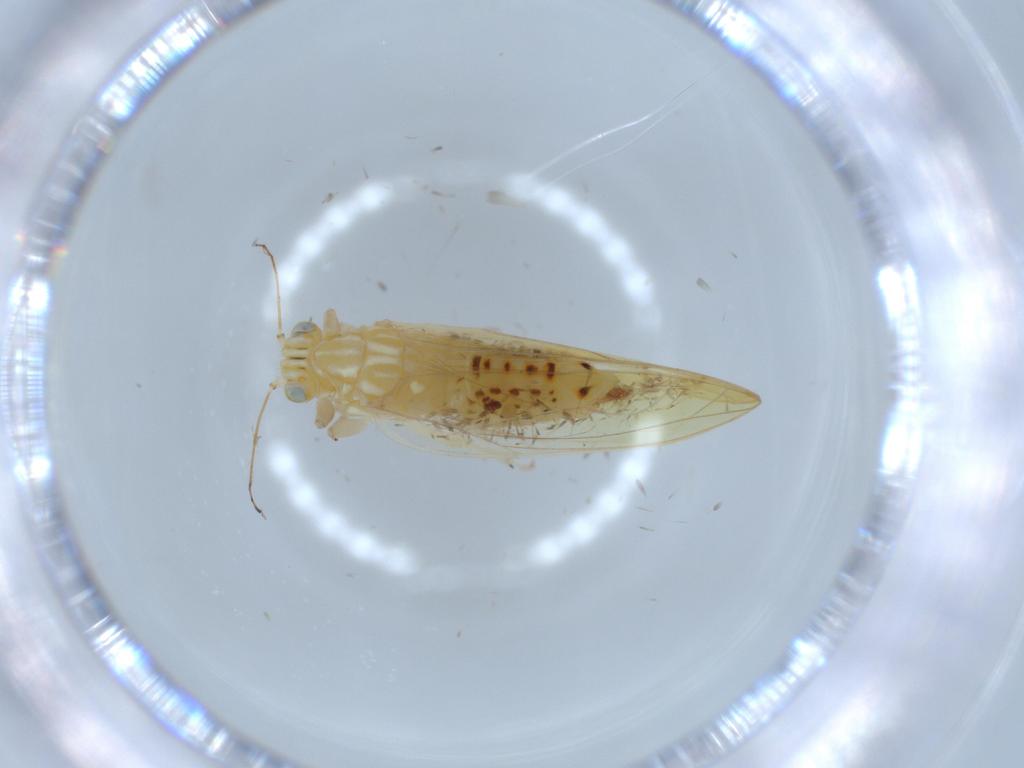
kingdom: Animalia
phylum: Arthropoda
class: Insecta
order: Hemiptera
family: Triozidae
